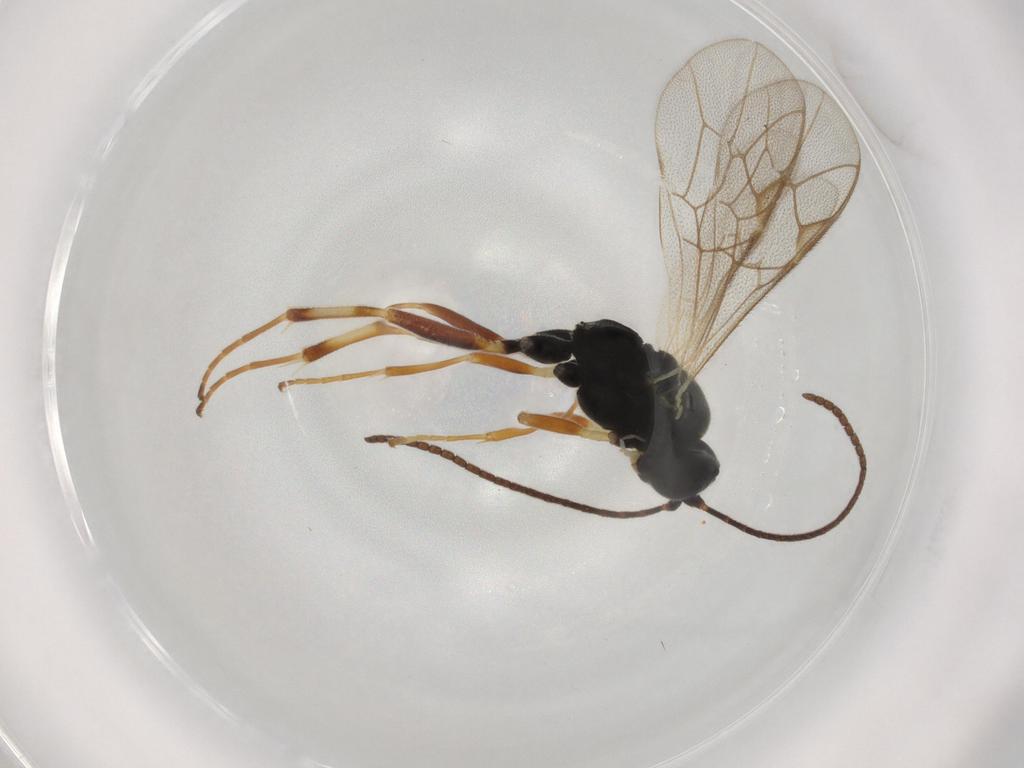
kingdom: Animalia
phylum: Arthropoda
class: Insecta
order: Hymenoptera
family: Ichneumonidae
